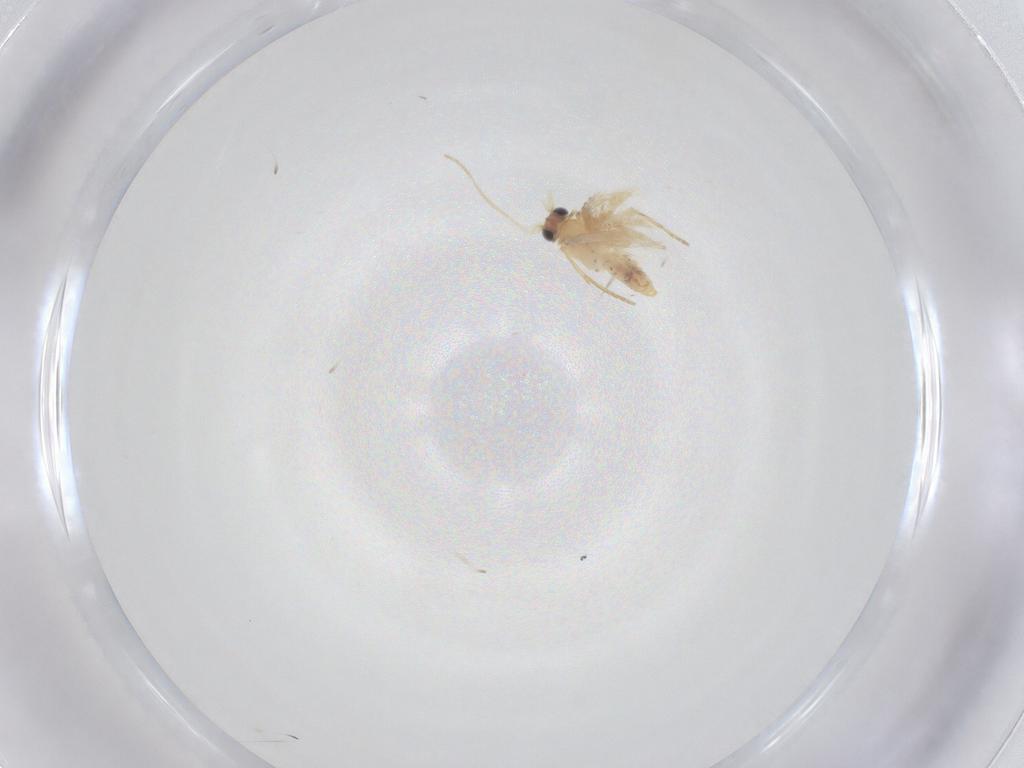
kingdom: Animalia
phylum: Arthropoda
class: Insecta
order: Lepidoptera
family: Nepticulidae
